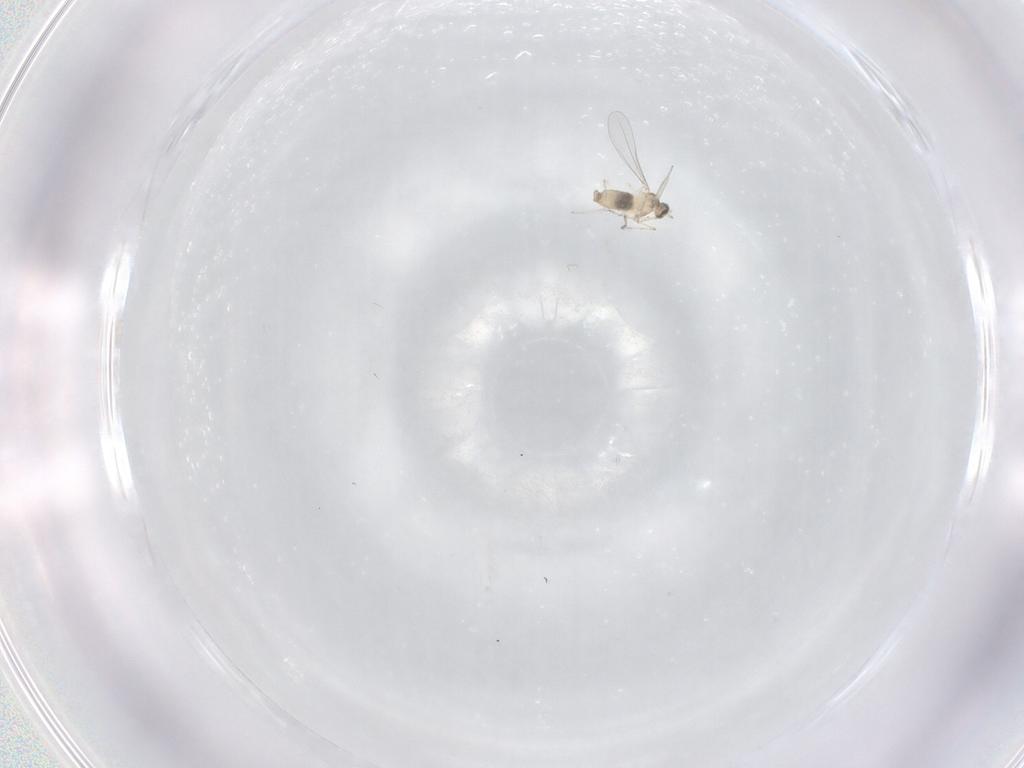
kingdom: Animalia
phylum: Arthropoda
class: Insecta
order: Diptera
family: Cecidomyiidae
